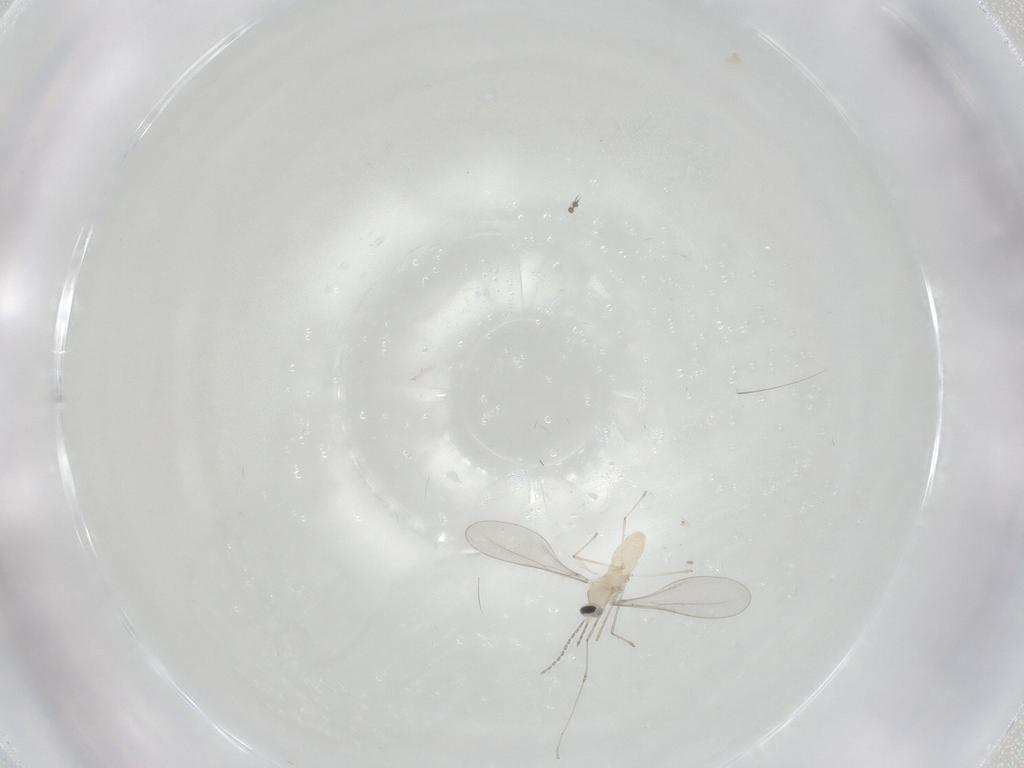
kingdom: Animalia
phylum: Arthropoda
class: Insecta
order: Diptera
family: Cecidomyiidae
